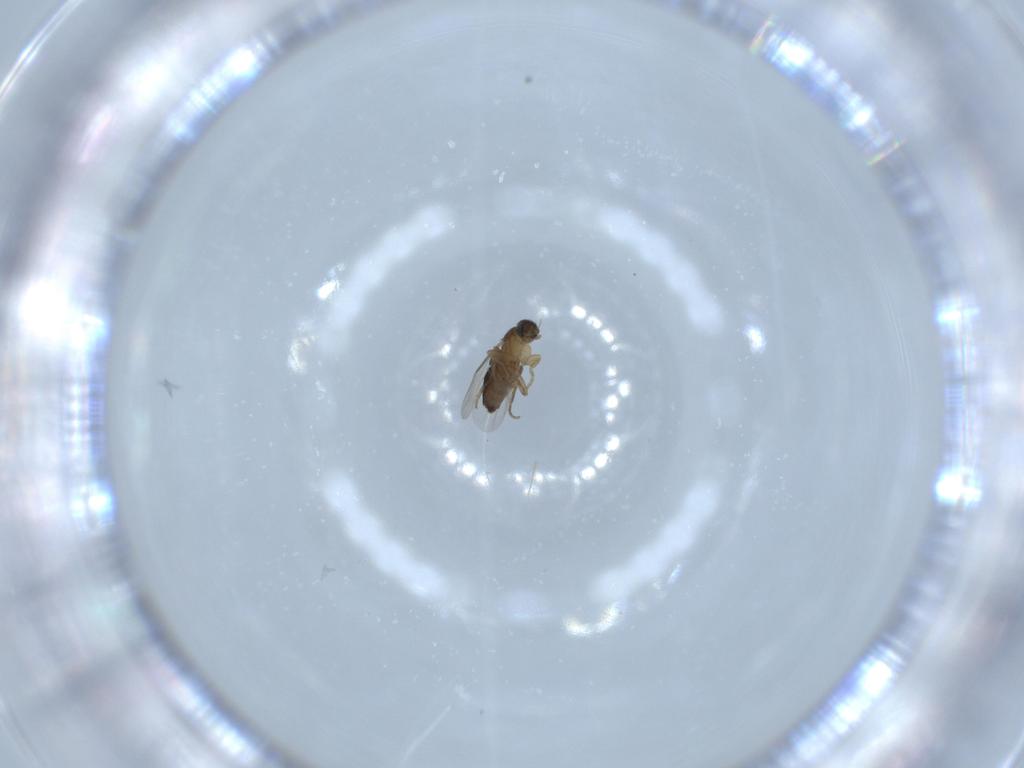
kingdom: Animalia
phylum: Arthropoda
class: Insecta
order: Diptera
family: Phoridae
